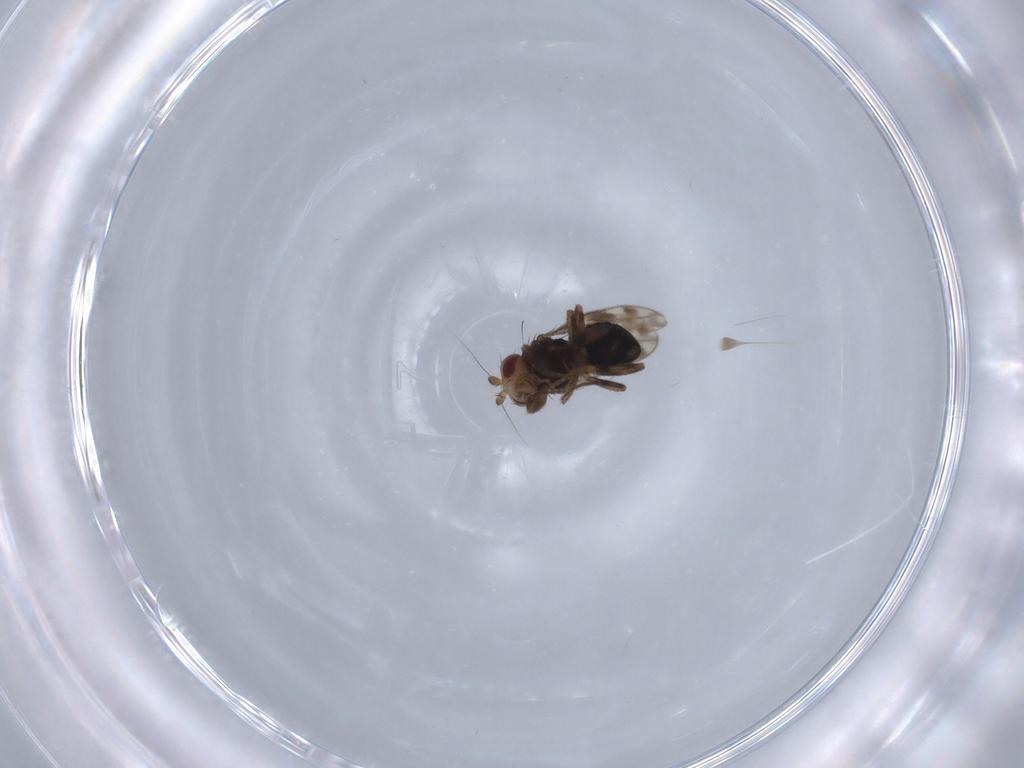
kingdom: Animalia
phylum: Arthropoda
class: Insecta
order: Diptera
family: Sphaeroceridae
